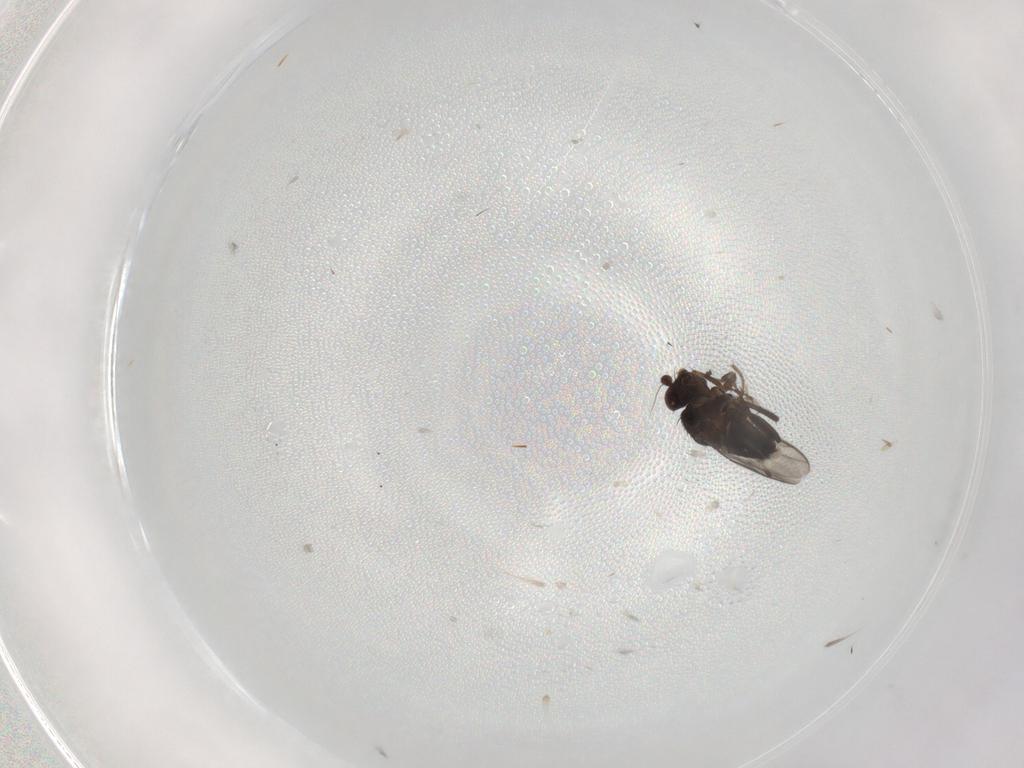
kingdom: Animalia
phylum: Arthropoda
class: Insecta
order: Diptera
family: Sphaeroceridae
